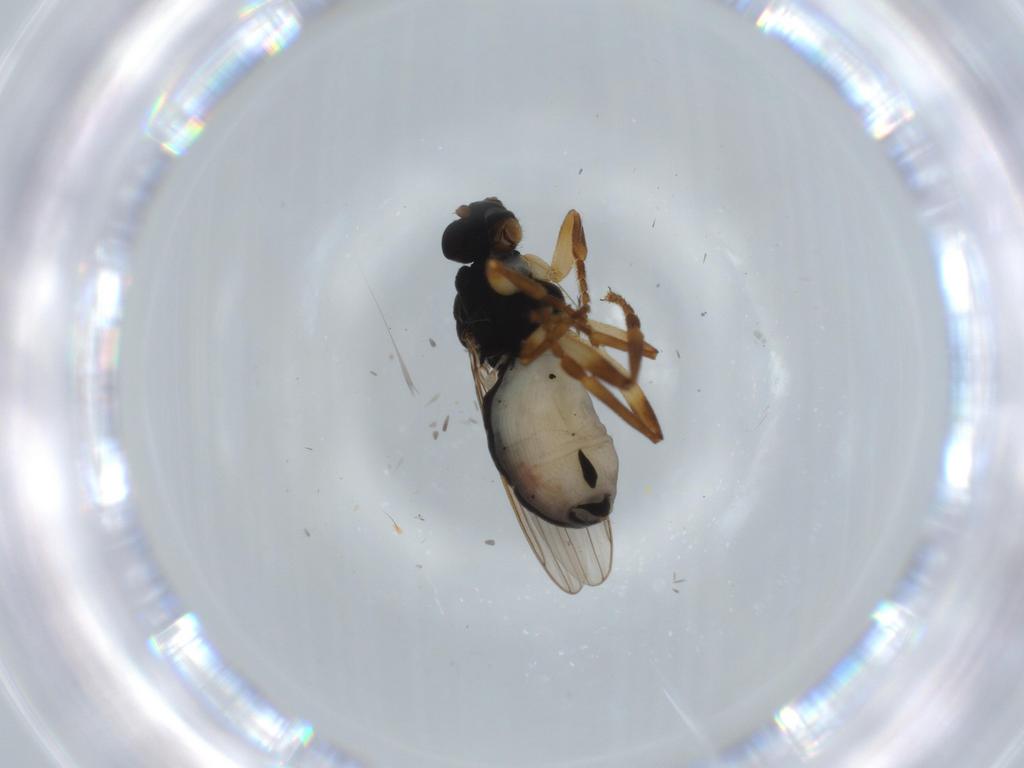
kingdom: Animalia
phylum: Arthropoda
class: Insecta
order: Diptera
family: Sphaeroceridae
